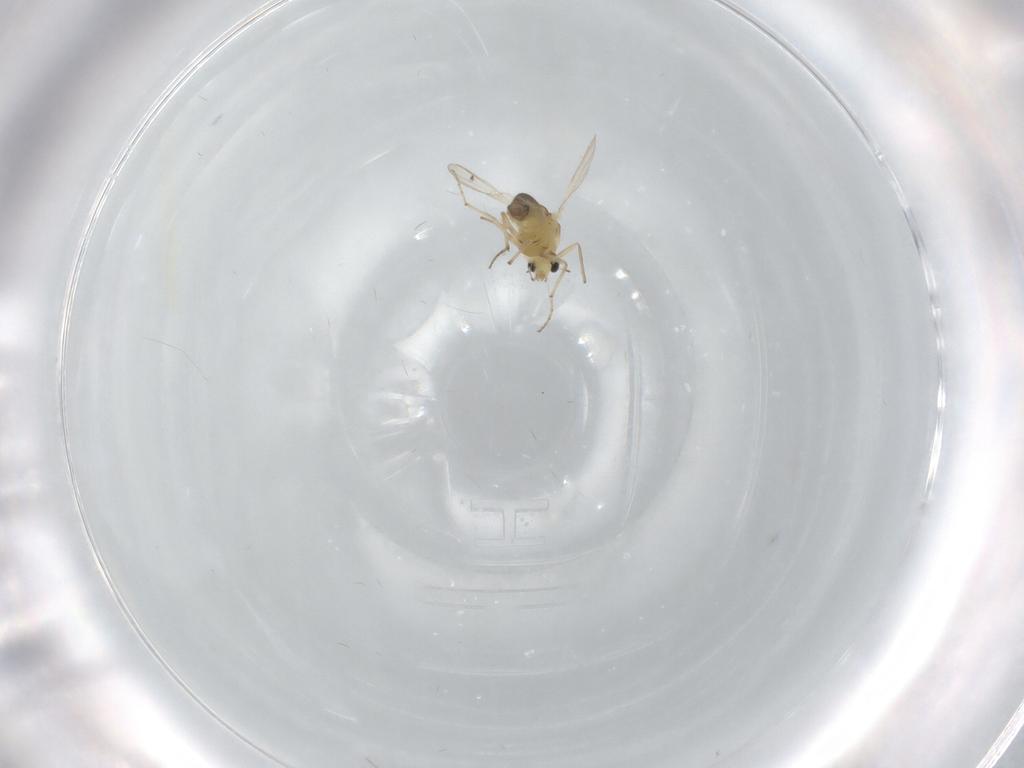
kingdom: Animalia
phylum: Arthropoda
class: Insecta
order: Diptera
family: Chironomidae
